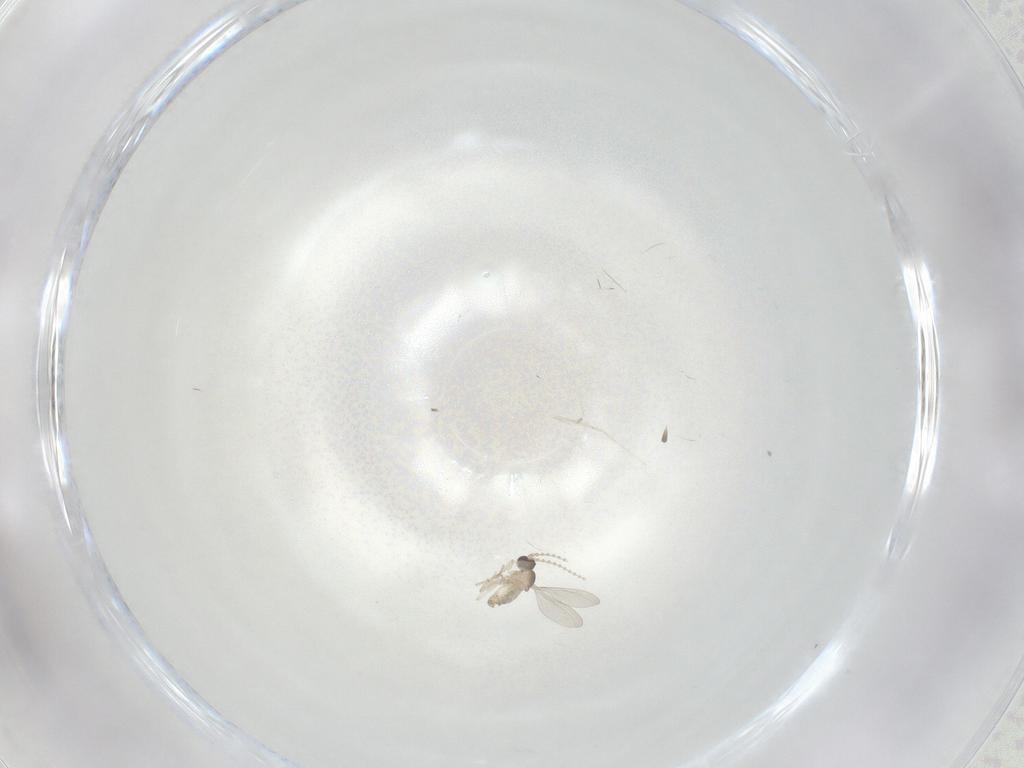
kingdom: Animalia
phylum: Arthropoda
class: Insecta
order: Diptera
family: Cecidomyiidae
